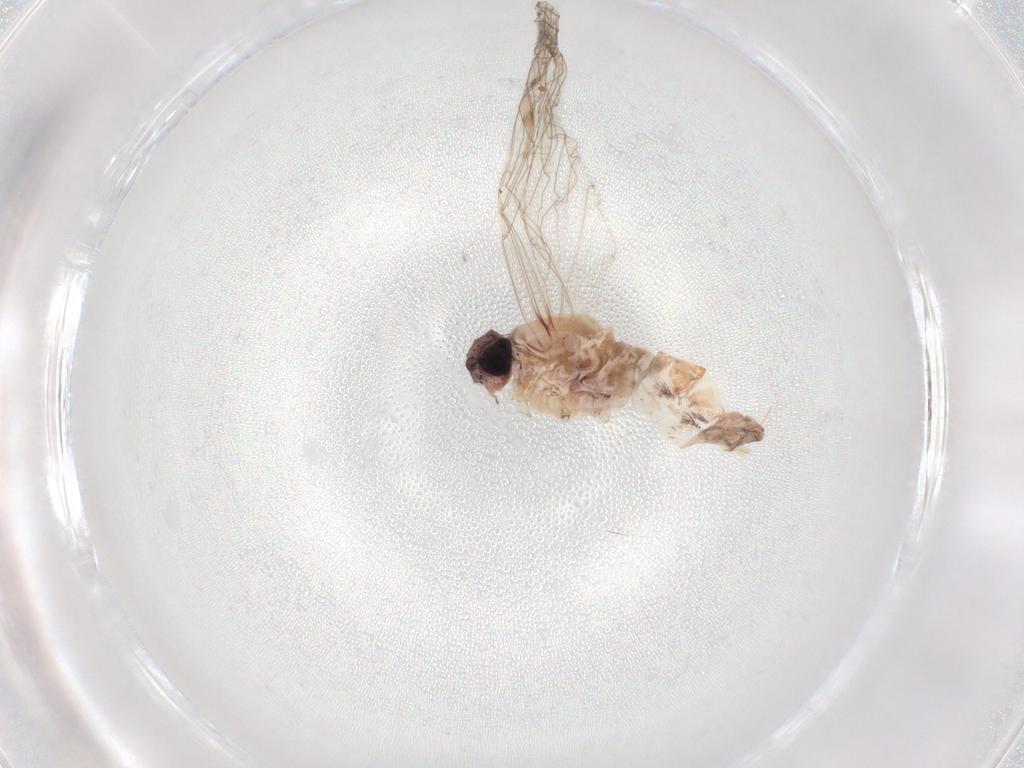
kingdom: Animalia
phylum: Arthropoda
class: Insecta
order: Ephemeroptera
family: Baetidae
